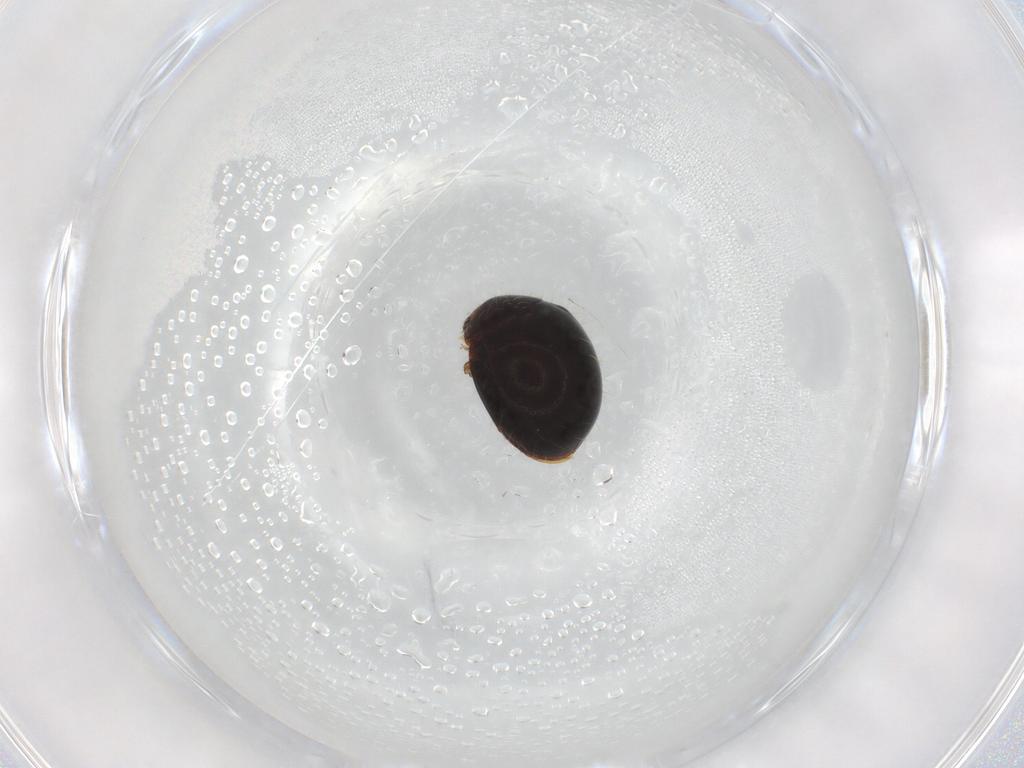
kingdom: Animalia
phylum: Arthropoda
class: Insecta
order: Coleoptera
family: Coccinellidae
